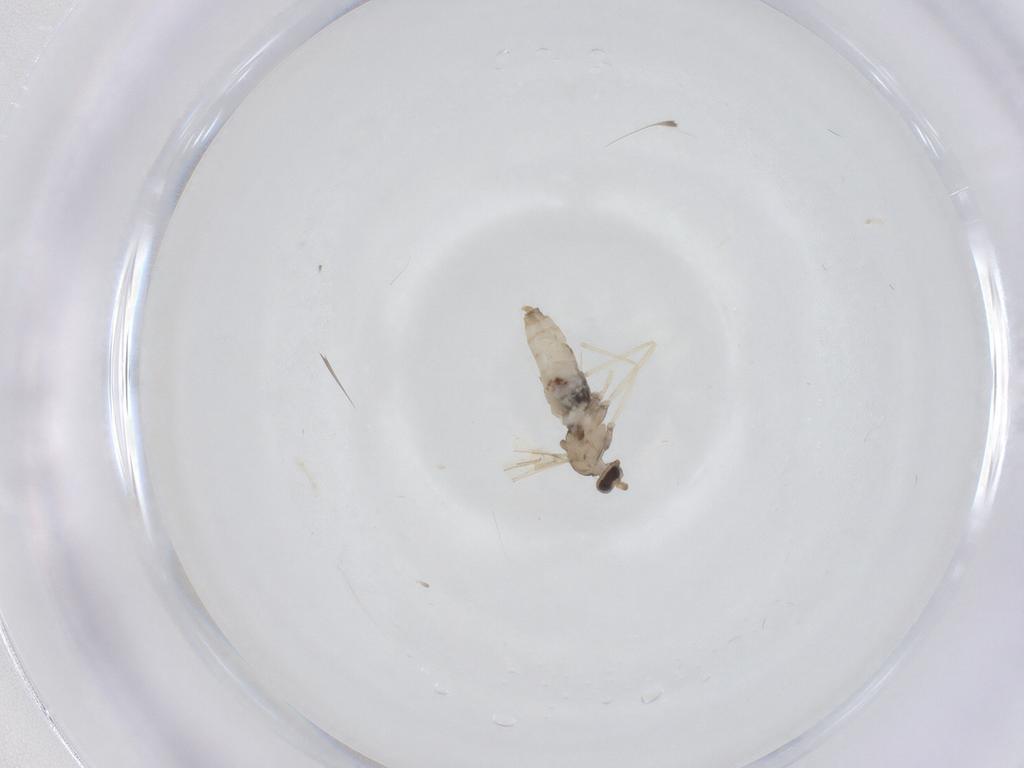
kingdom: Animalia
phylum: Arthropoda
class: Insecta
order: Diptera
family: Cecidomyiidae
